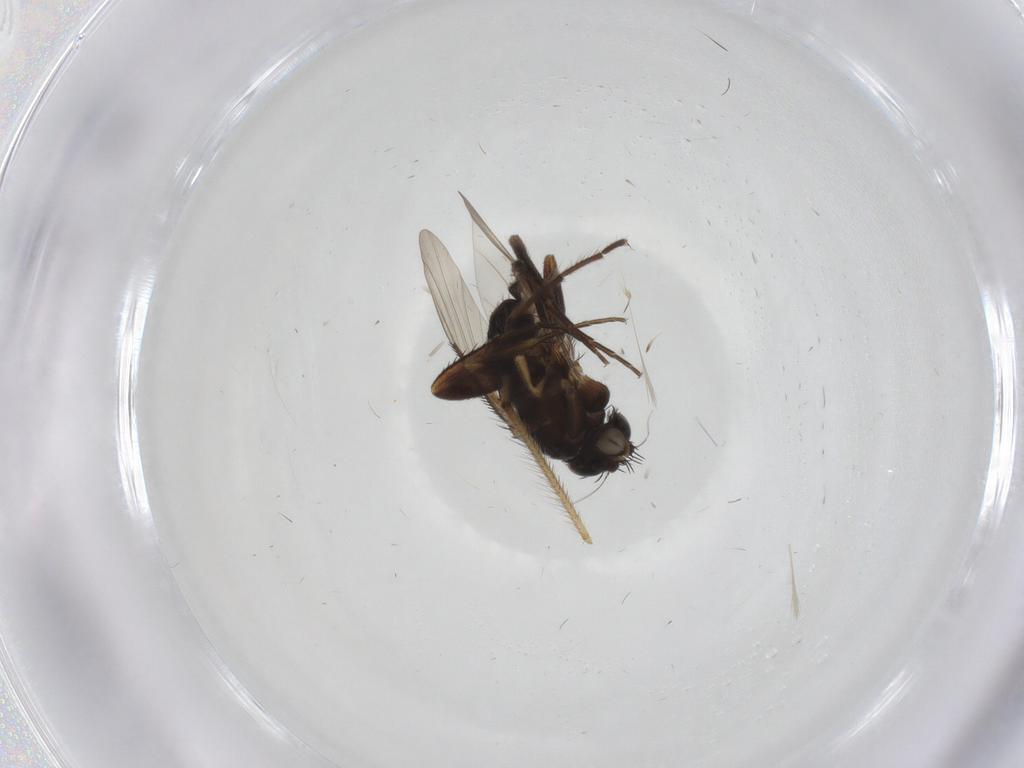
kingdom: Animalia
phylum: Arthropoda
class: Insecta
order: Diptera
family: Phoridae
